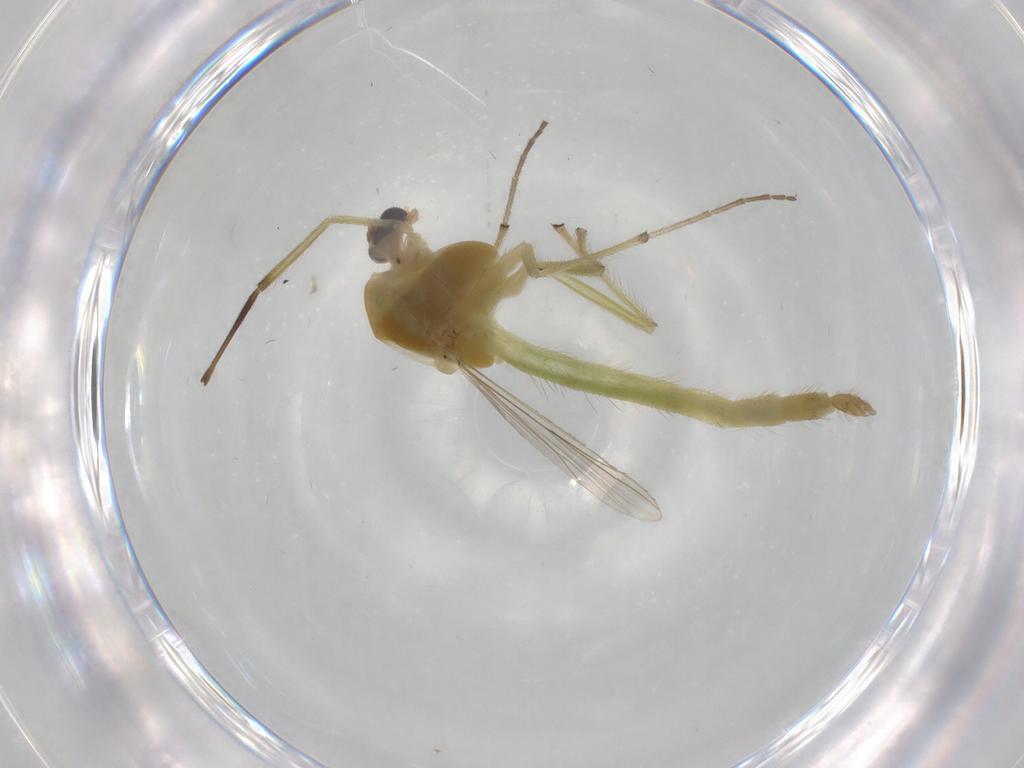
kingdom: Animalia
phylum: Arthropoda
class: Insecta
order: Diptera
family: Chironomidae
